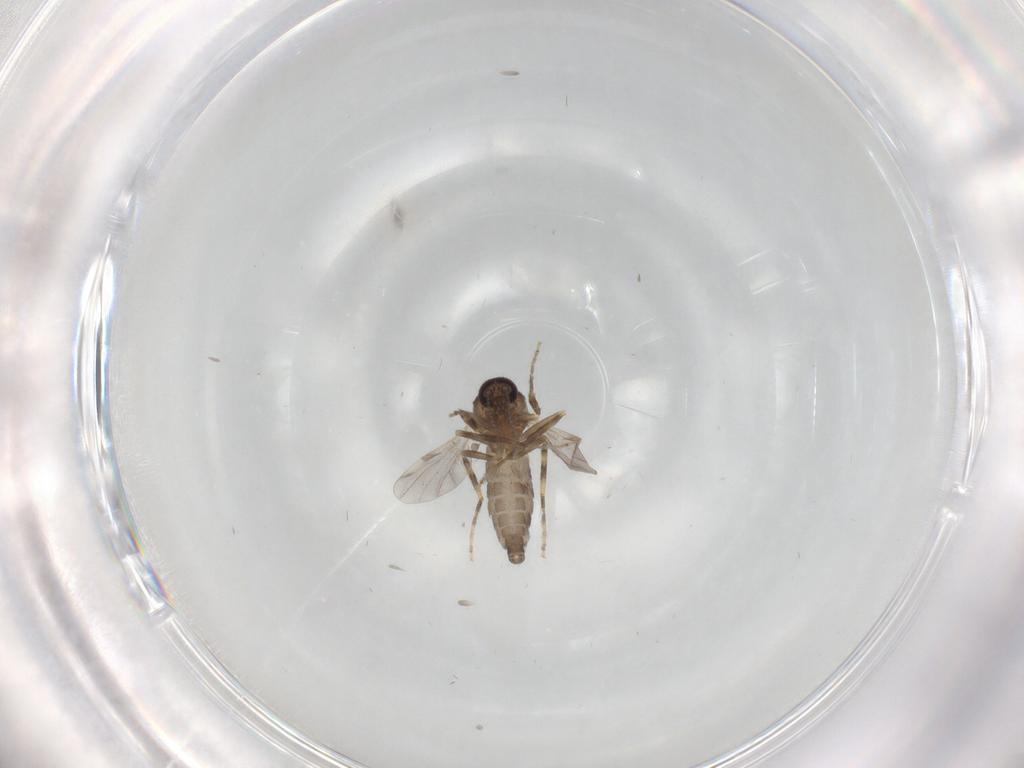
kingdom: Animalia
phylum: Arthropoda
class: Insecta
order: Diptera
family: Ceratopogonidae
